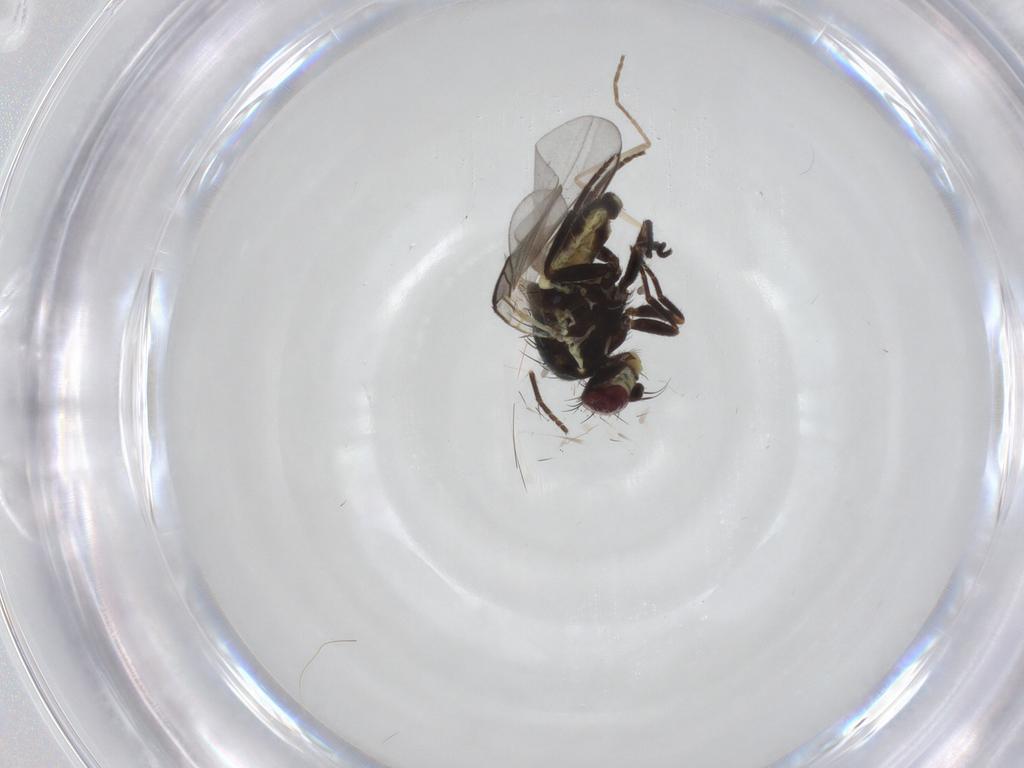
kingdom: Animalia
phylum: Arthropoda
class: Insecta
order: Diptera
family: Agromyzidae
